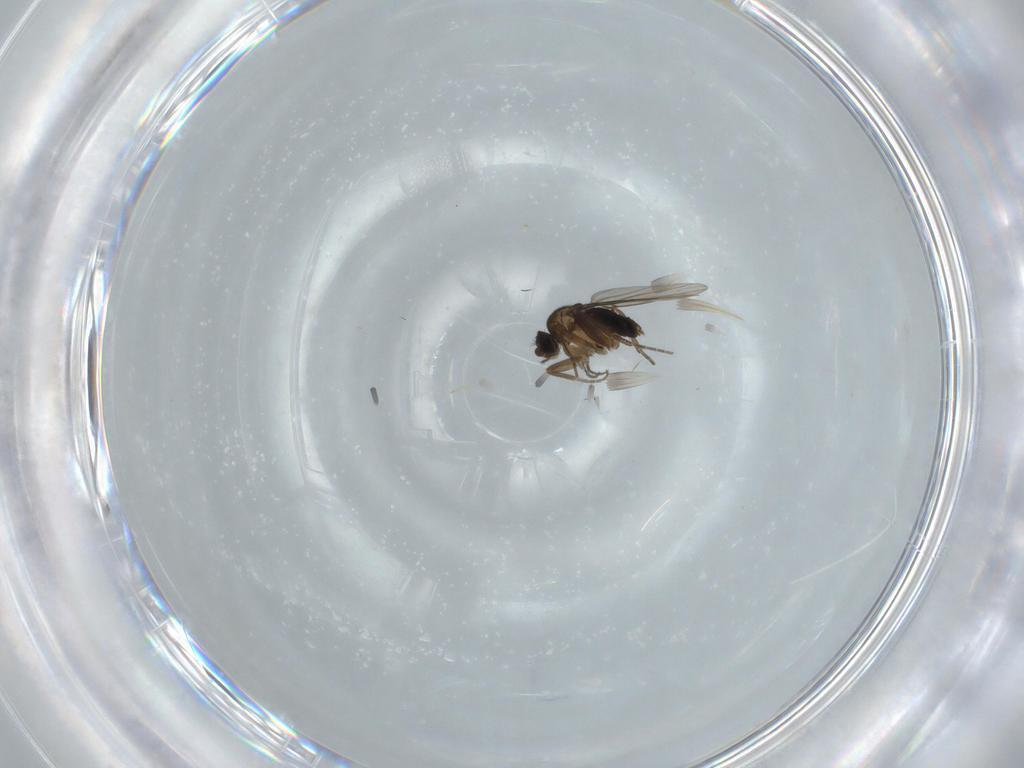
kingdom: Animalia
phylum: Arthropoda
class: Insecta
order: Diptera
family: Phoridae
